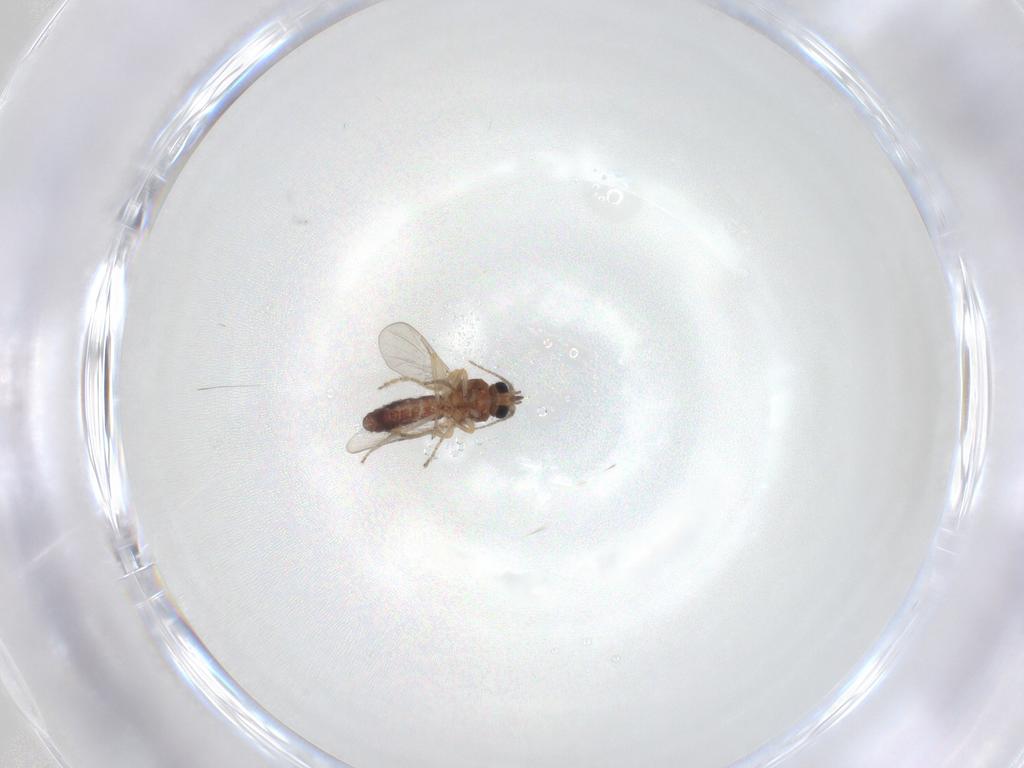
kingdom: Animalia
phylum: Arthropoda
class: Insecta
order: Diptera
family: Ceratopogonidae
